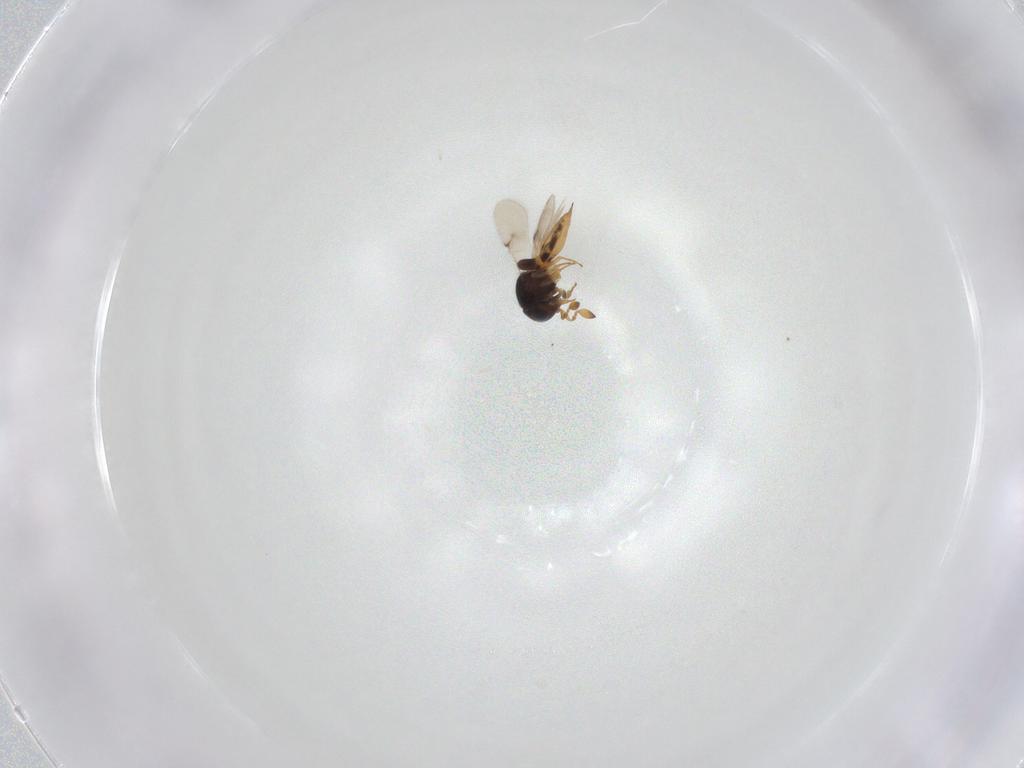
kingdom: Animalia
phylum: Arthropoda
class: Insecta
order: Hymenoptera
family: Scelionidae
